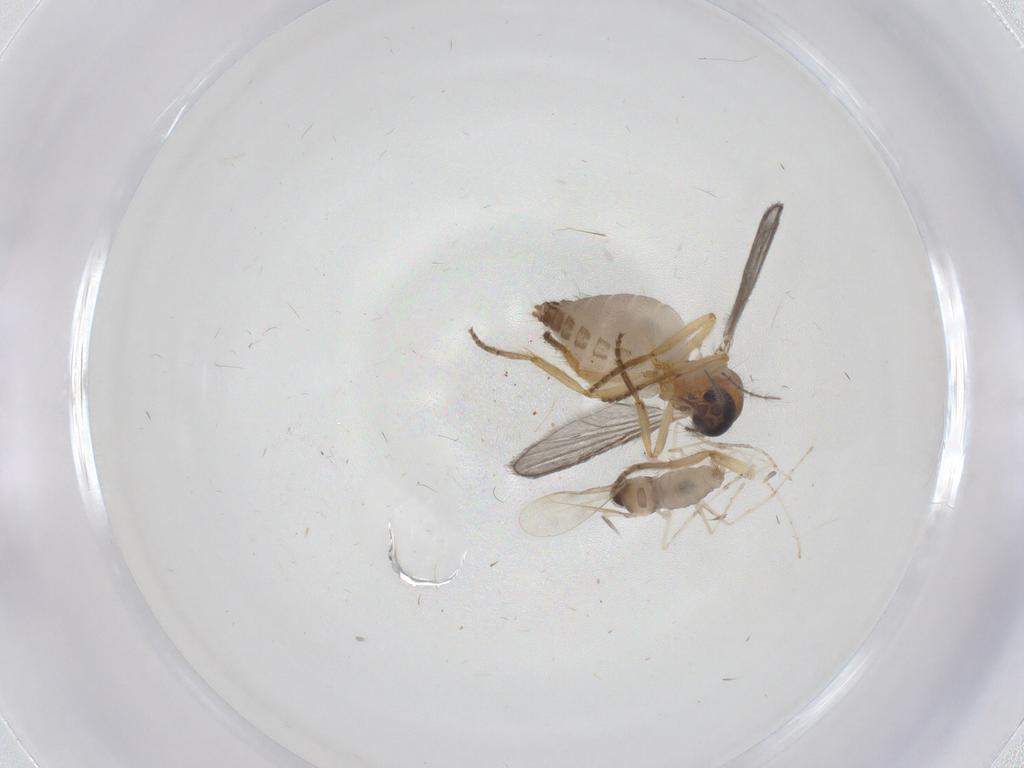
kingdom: Animalia
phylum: Arthropoda
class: Insecta
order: Diptera
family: Ceratopogonidae
